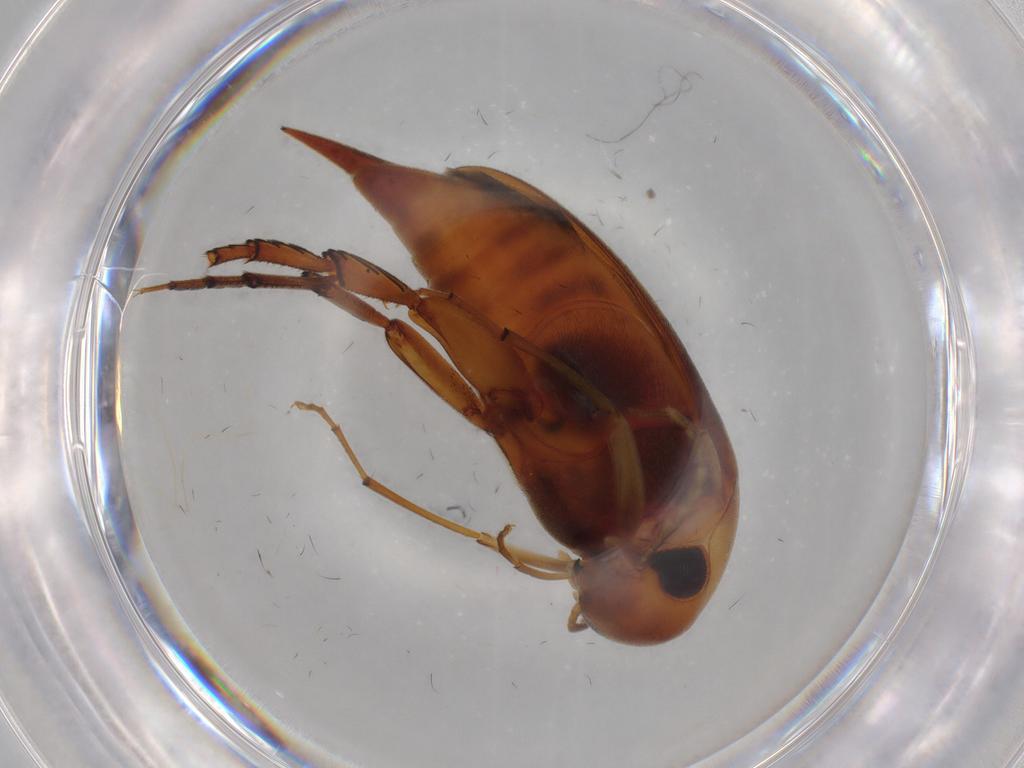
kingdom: Animalia
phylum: Arthropoda
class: Insecta
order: Coleoptera
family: Mordellidae
